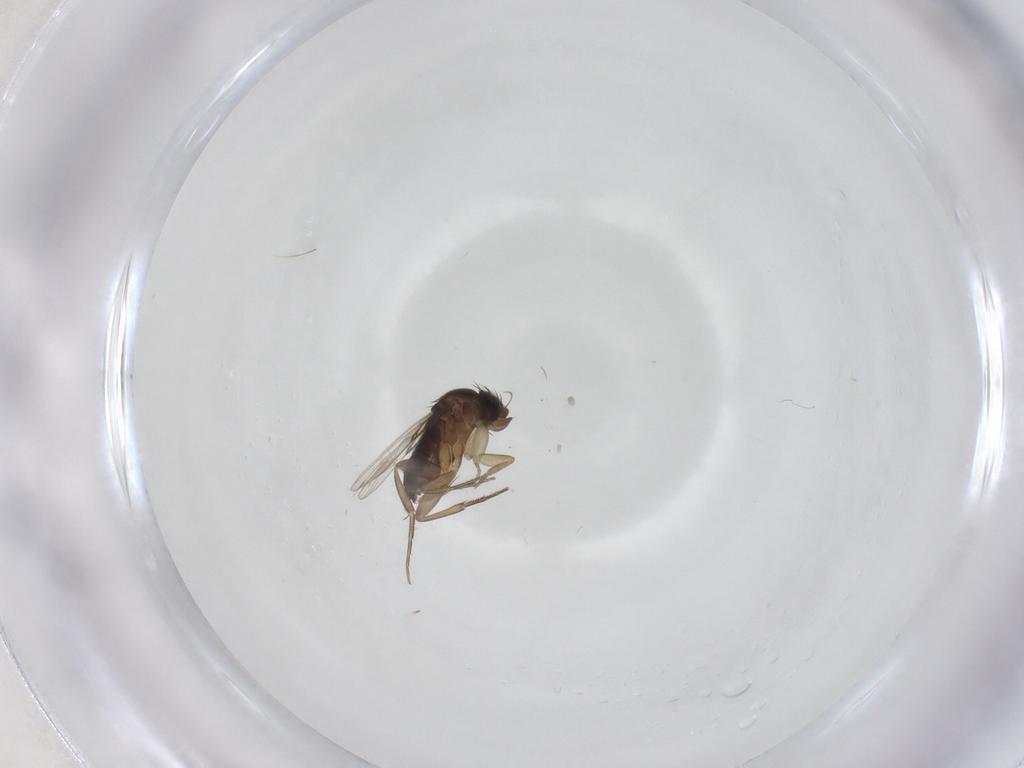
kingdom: Animalia
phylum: Arthropoda
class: Insecta
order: Diptera
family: Phoridae
